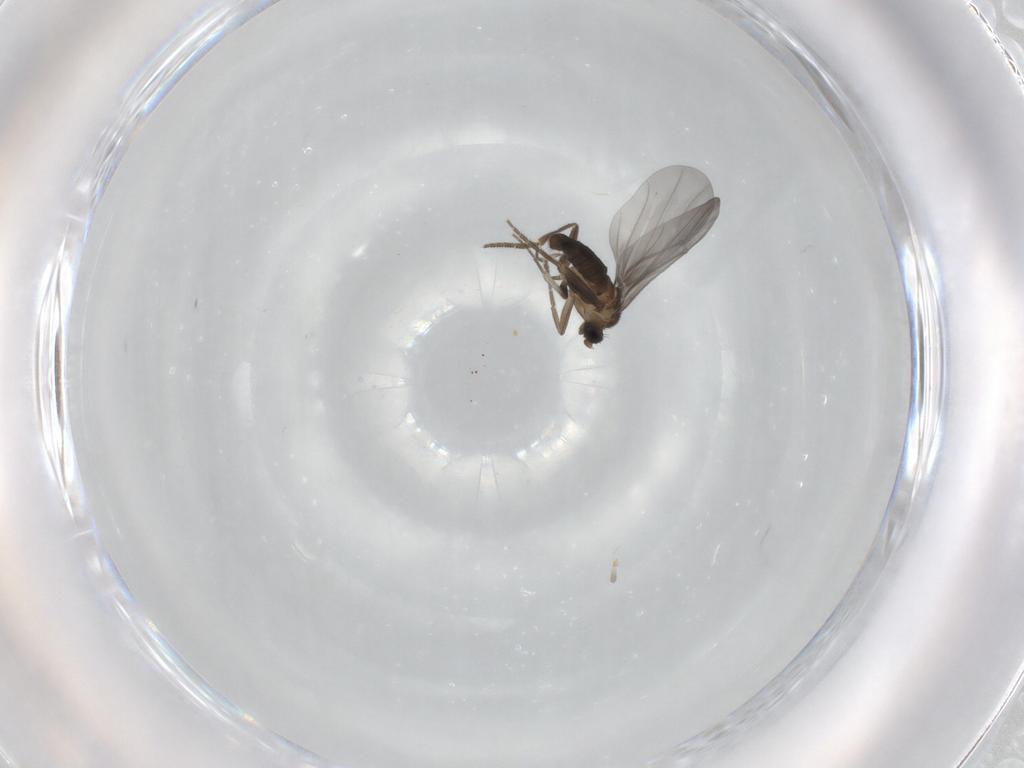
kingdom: Animalia
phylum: Arthropoda
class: Insecta
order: Diptera
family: Phoridae
